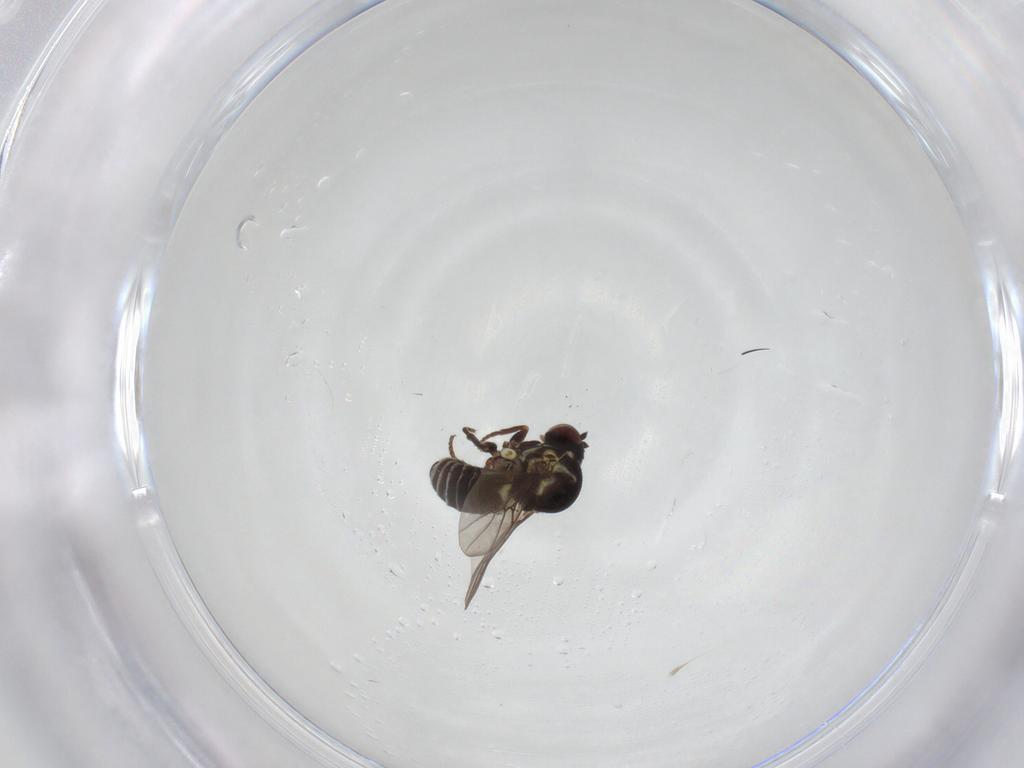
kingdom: Animalia
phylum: Arthropoda
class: Insecta
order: Diptera
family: Mythicomyiidae
